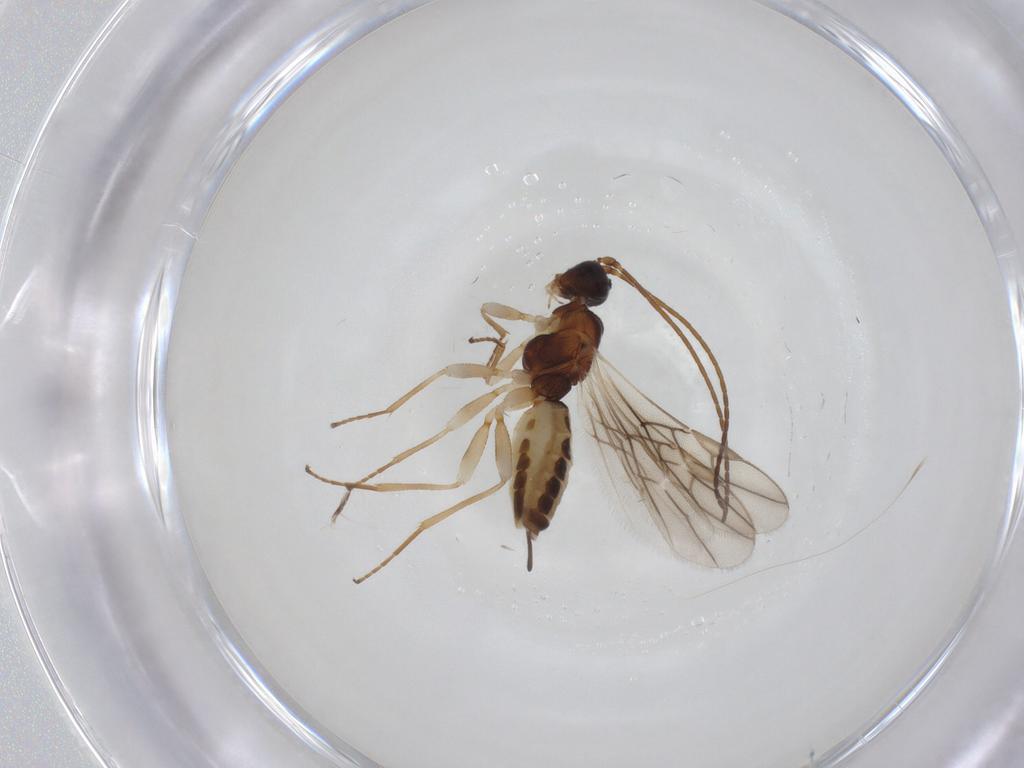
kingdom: Animalia
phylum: Arthropoda
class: Insecta
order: Hymenoptera
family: Braconidae
